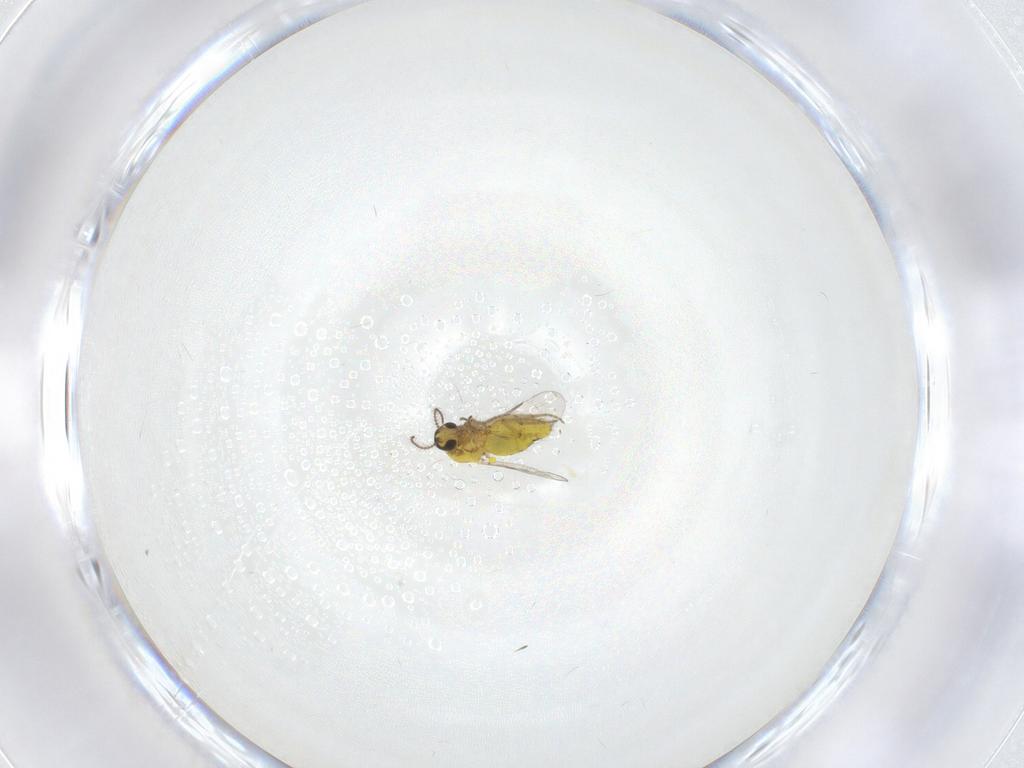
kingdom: Animalia
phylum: Arthropoda
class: Insecta
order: Diptera
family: Ceratopogonidae
